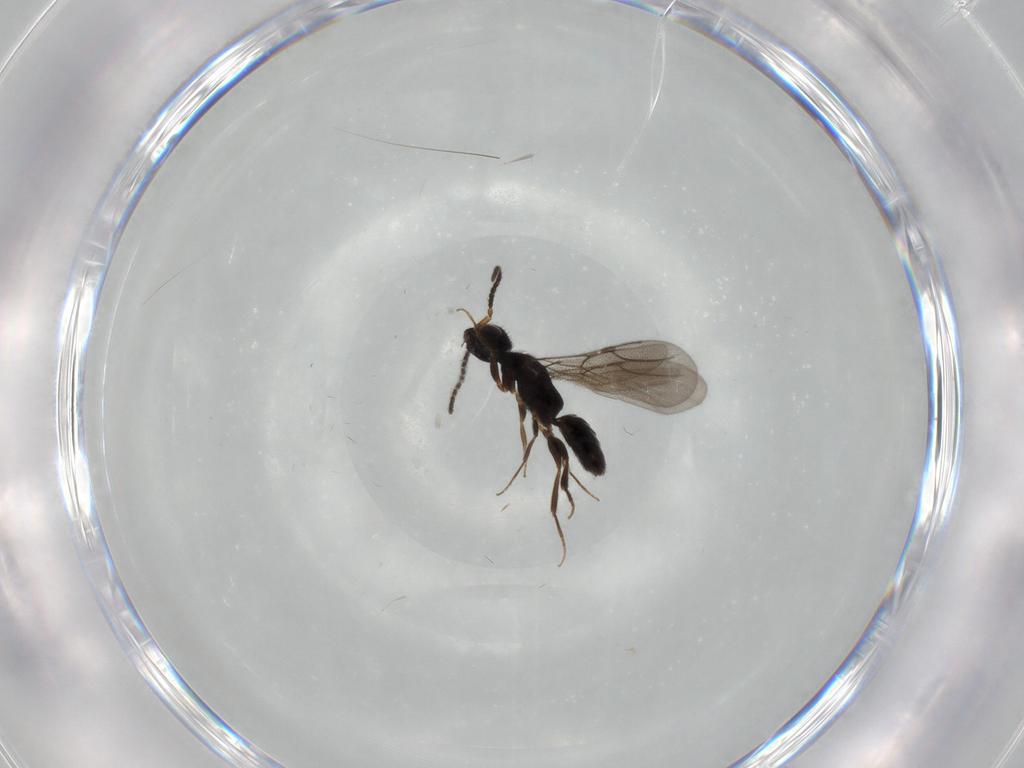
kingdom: Animalia
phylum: Arthropoda
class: Insecta
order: Hymenoptera
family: Bethylidae
